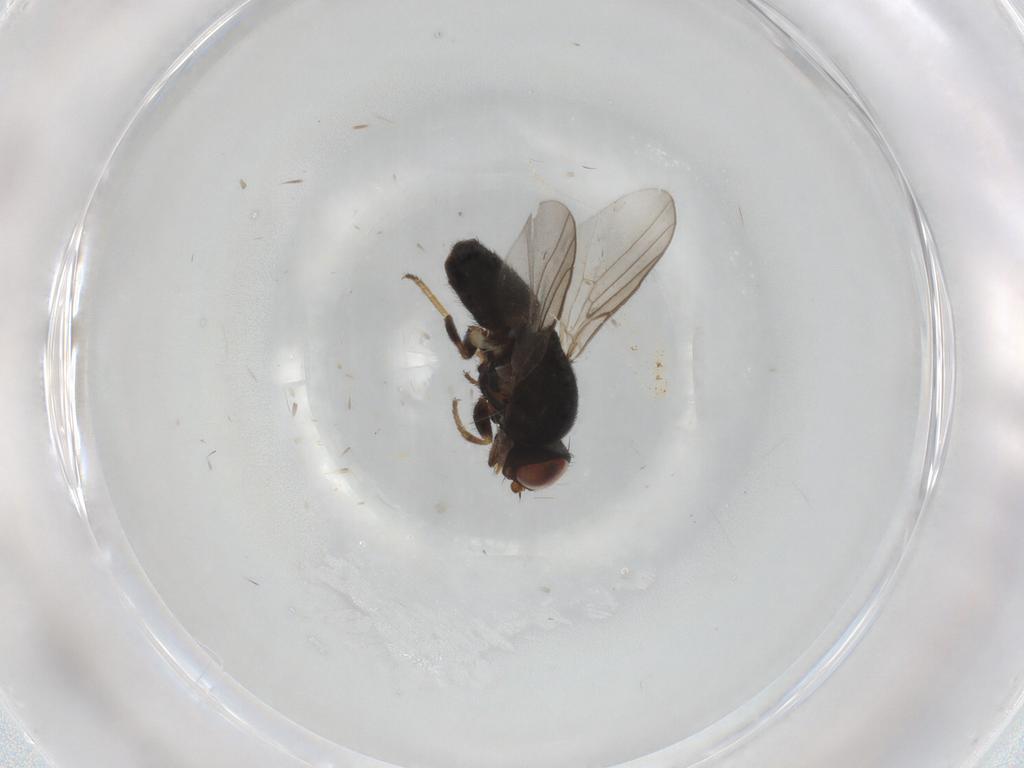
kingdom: Animalia
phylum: Arthropoda
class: Insecta
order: Diptera
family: Chloropidae
